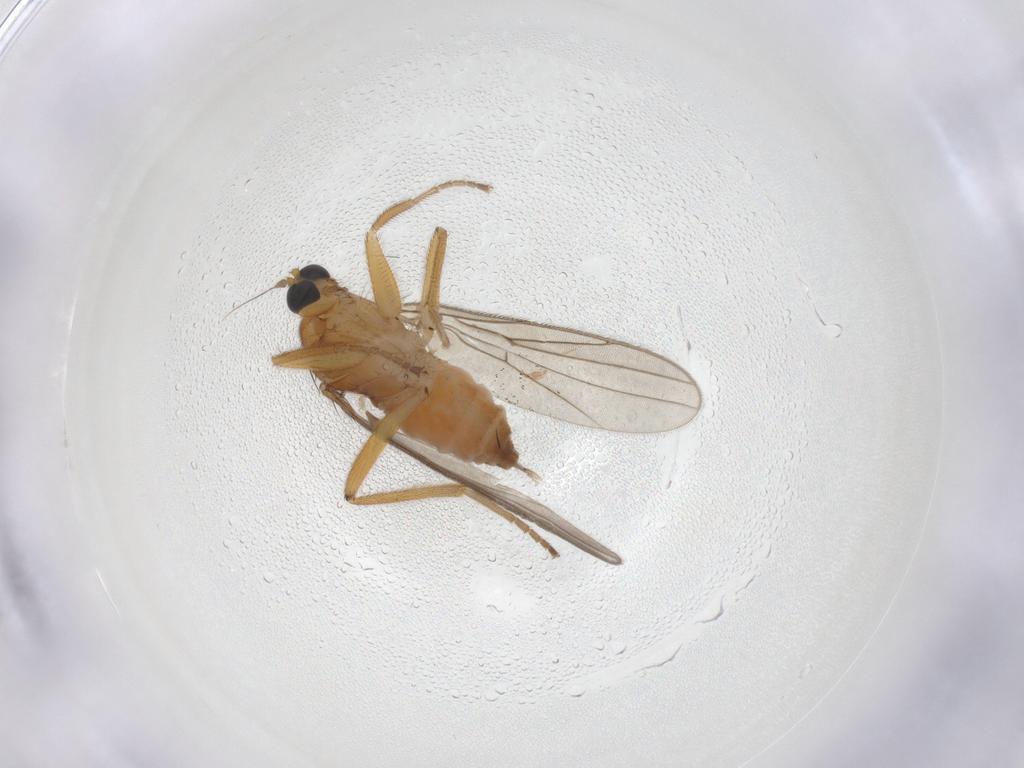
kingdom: Animalia
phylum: Arthropoda
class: Insecta
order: Diptera
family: Hybotidae
